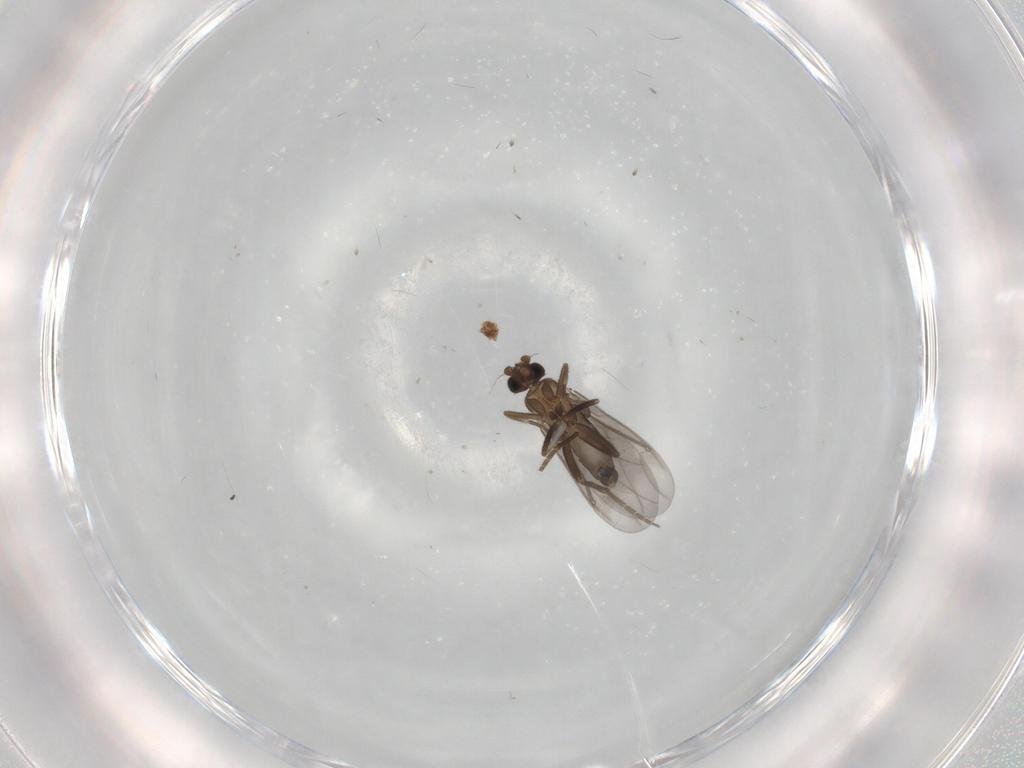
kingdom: Animalia
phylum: Arthropoda
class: Insecta
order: Diptera
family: Phoridae
